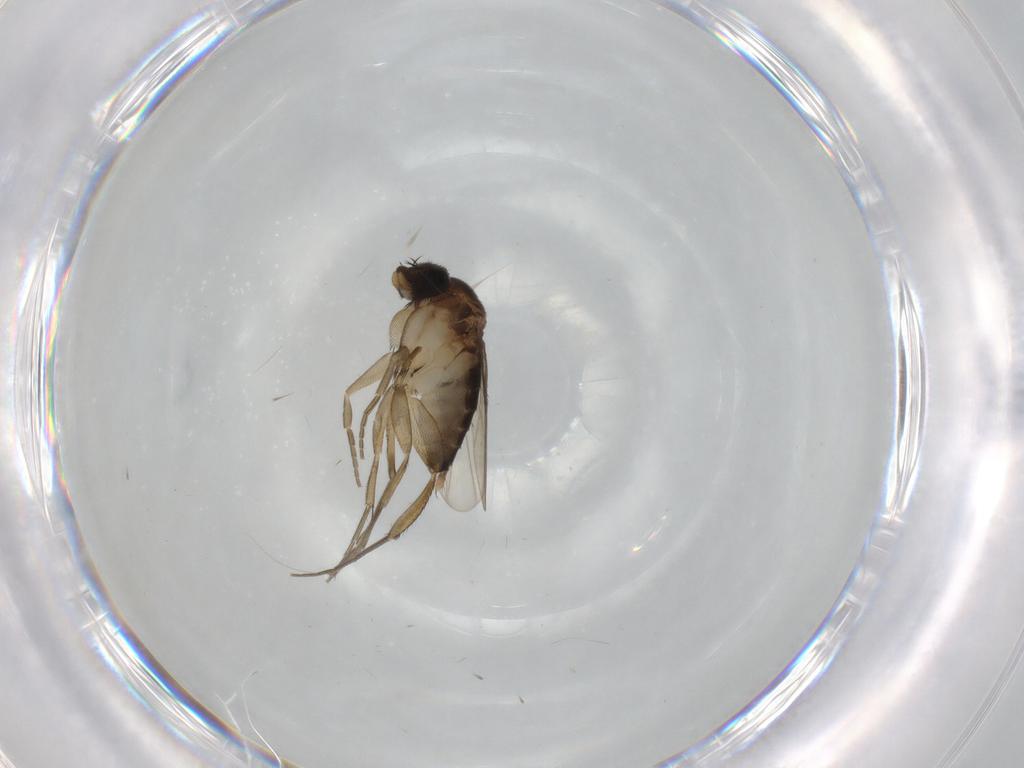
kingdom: Animalia
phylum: Arthropoda
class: Insecta
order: Diptera
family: Phoridae
